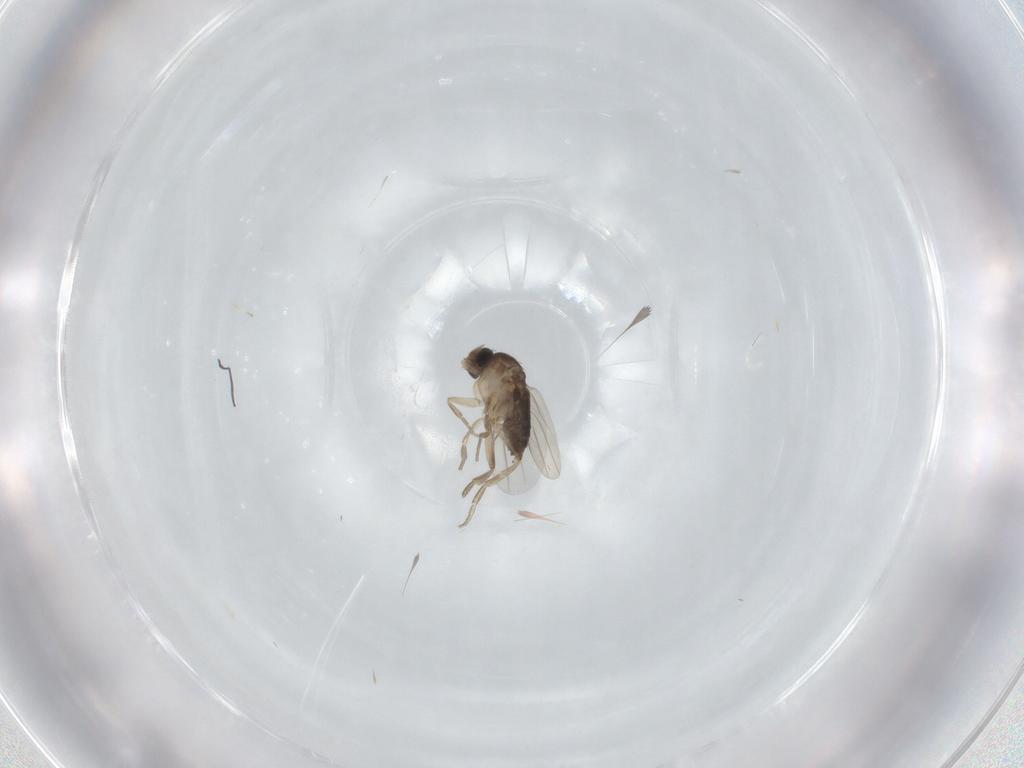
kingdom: Animalia
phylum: Arthropoda
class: Insecta
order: Diptera
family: Phoridae
